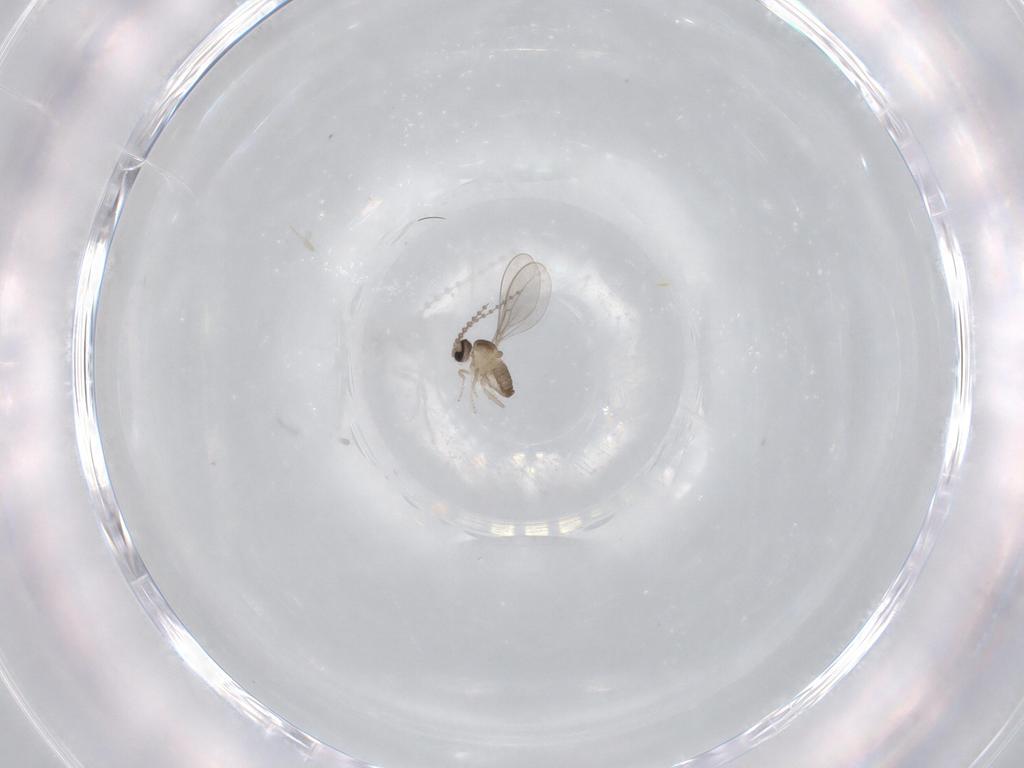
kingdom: Animalia
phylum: Arthropoda
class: Insecta
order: Diptera
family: Cecidomyiidae
